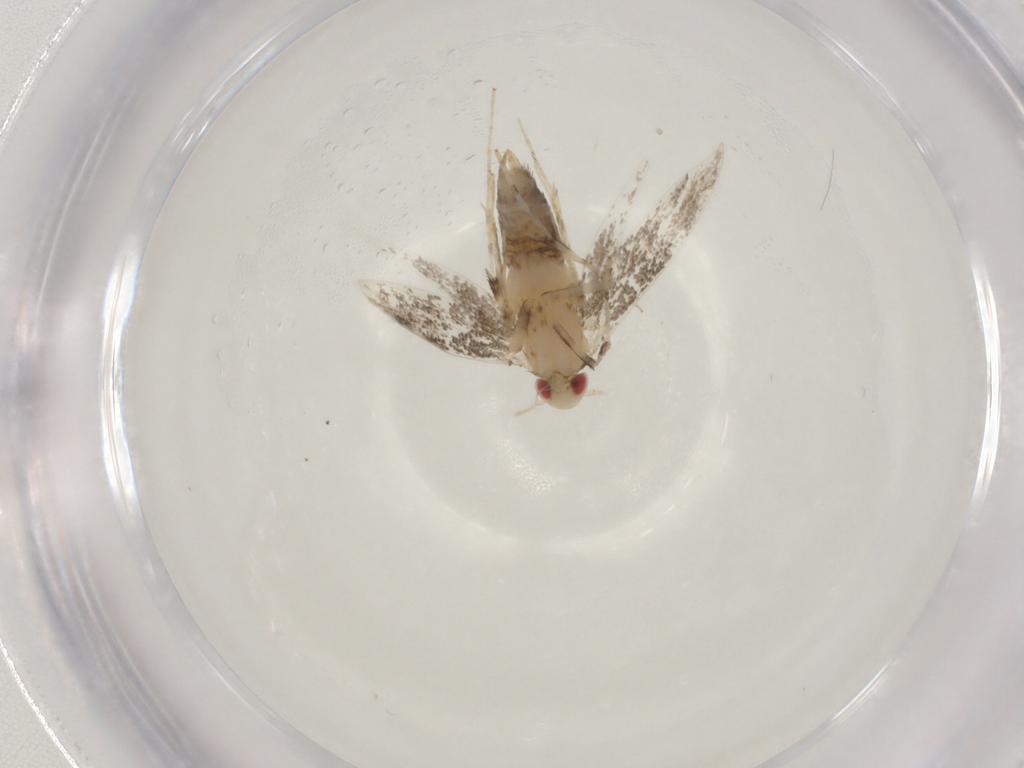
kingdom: Animalia
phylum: Arthropoda
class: Insecta
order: Lepidoptera
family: Gracillariidae
